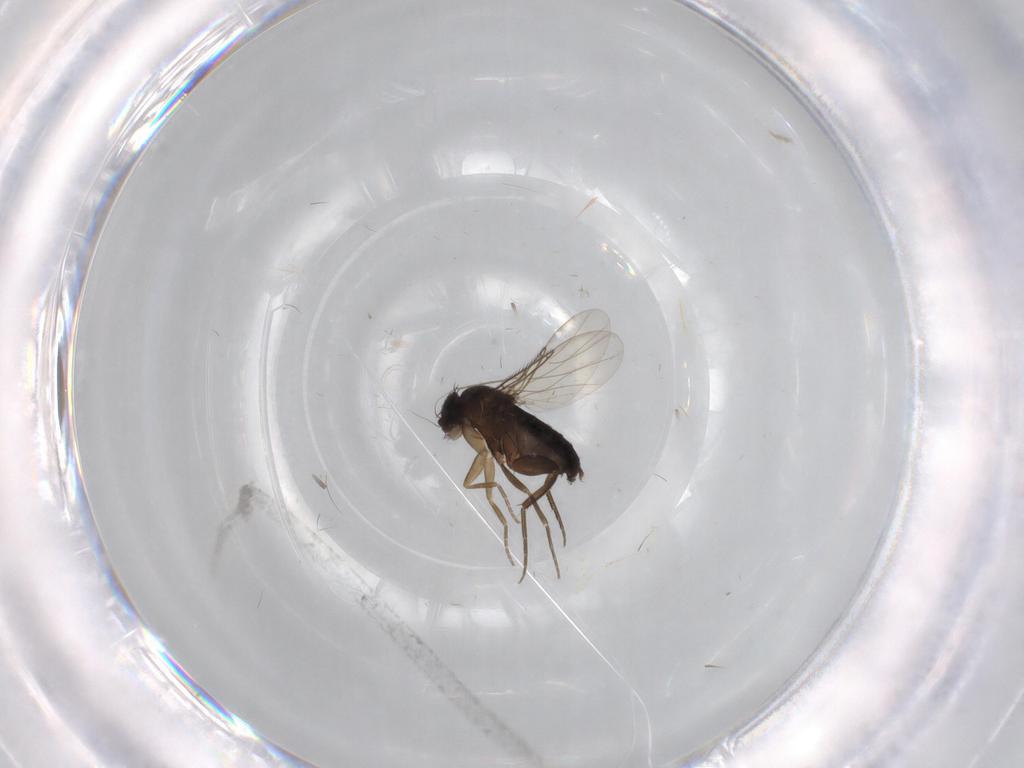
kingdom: Animalia
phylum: Arthropoda
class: Insecta
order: Diptera
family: Phoridae
